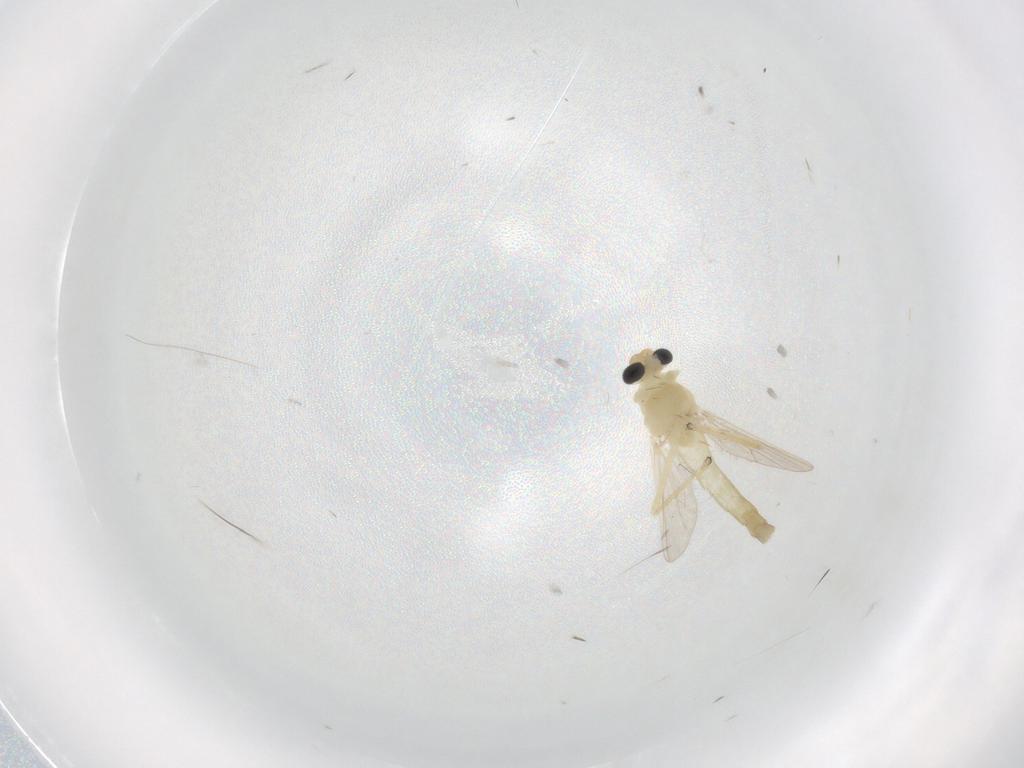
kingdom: Animalia
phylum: Arthropoda
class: Insecta
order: Diptera
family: Chironomidae
